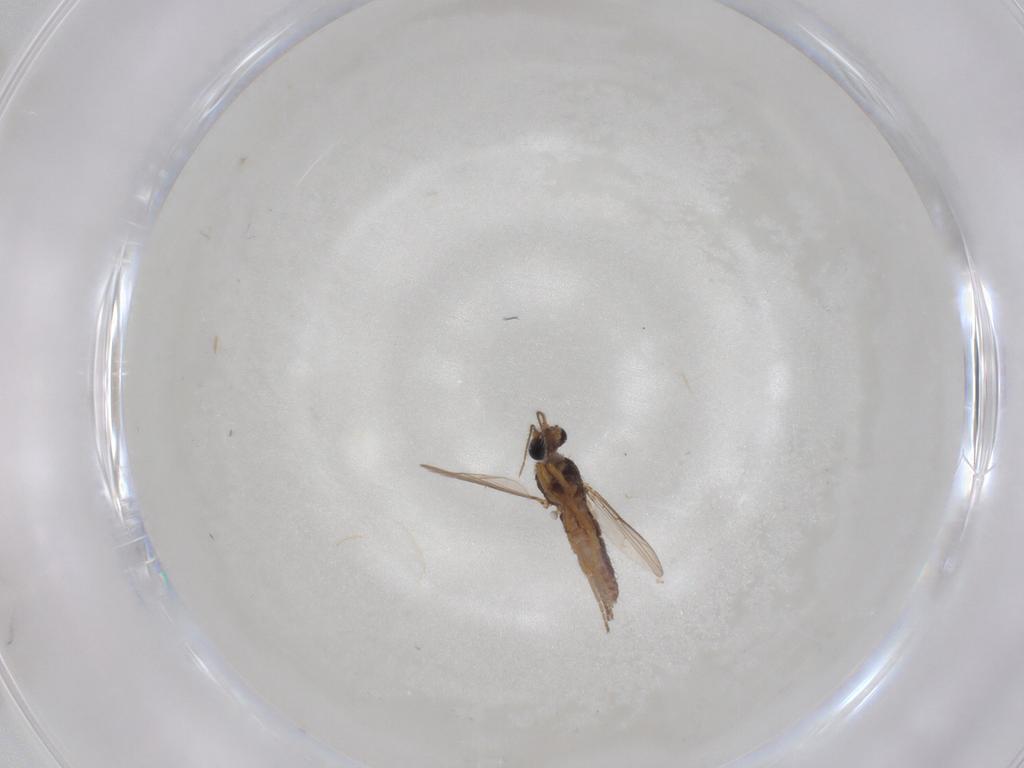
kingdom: Animalia
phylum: Arthropoda
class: Insecta
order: Diptera
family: Ceratopogonidae
